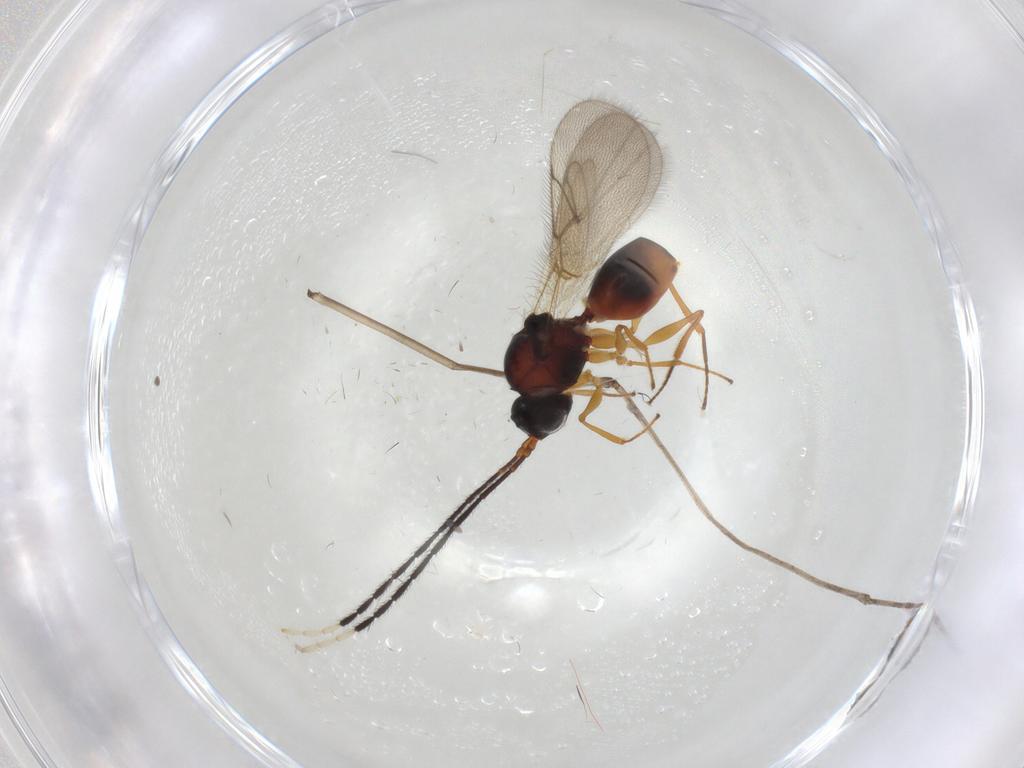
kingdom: Animalia
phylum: Arthropoda
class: Insecta
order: Hymenoptera
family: Figitidae
